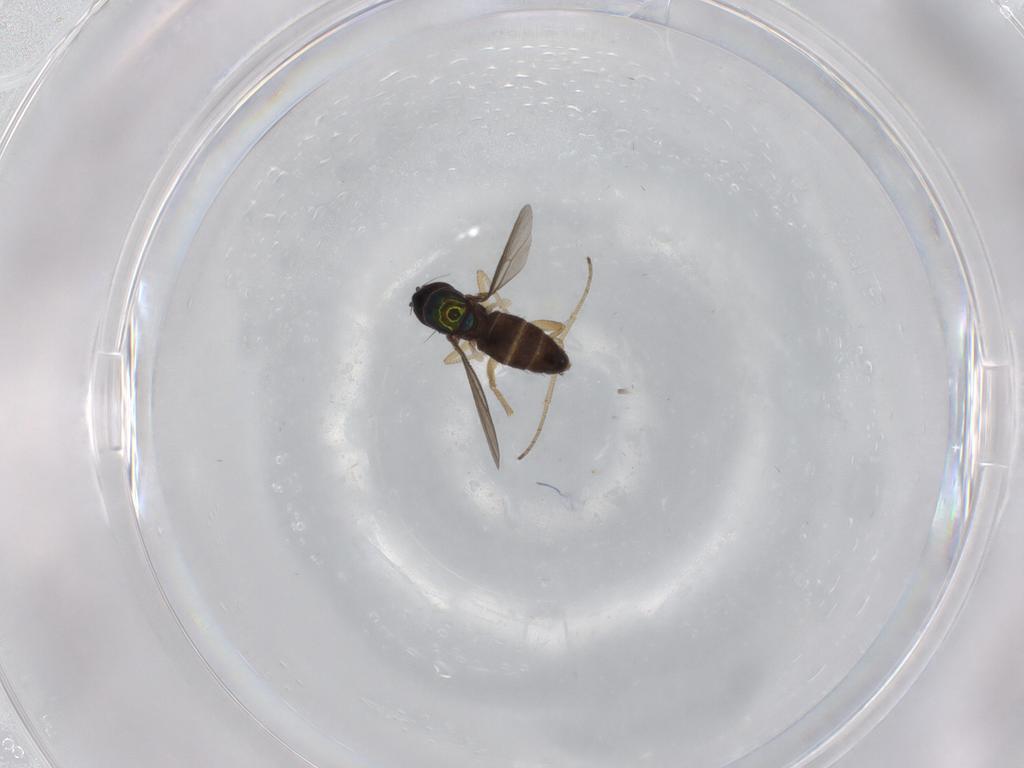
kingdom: Animalia
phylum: Arthropoda
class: Insecta
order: Diptera
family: Dolichopodidae
